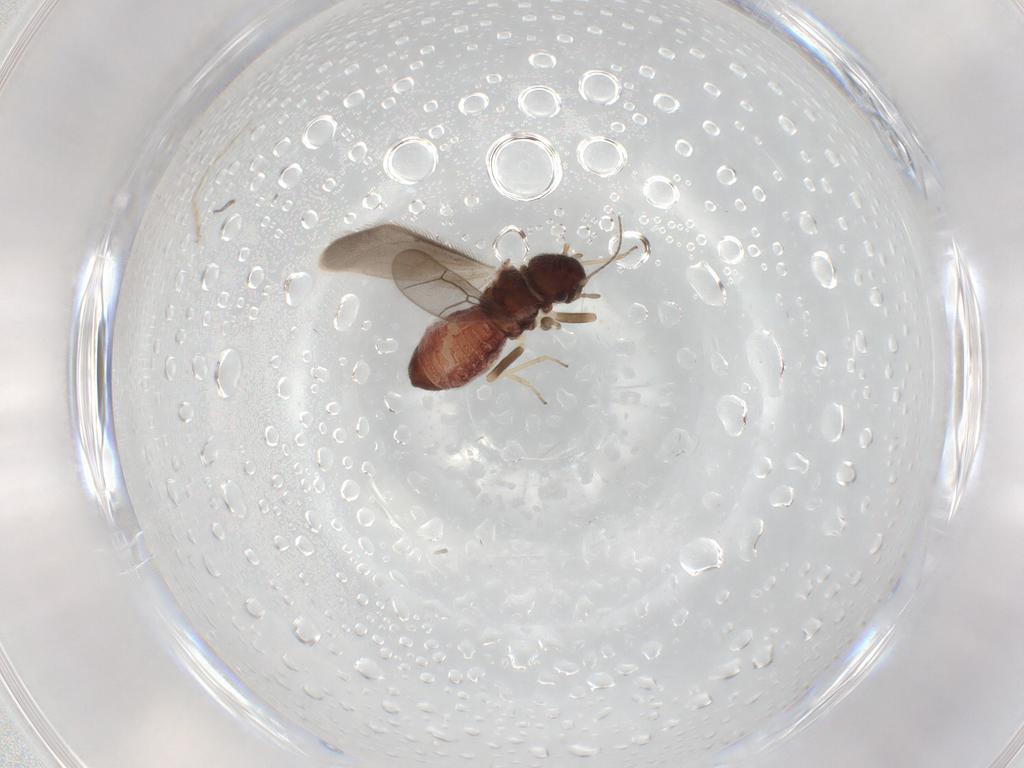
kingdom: Animalia
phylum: Arthropoda
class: Insecta
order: Psocodea
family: Archipsocidae
